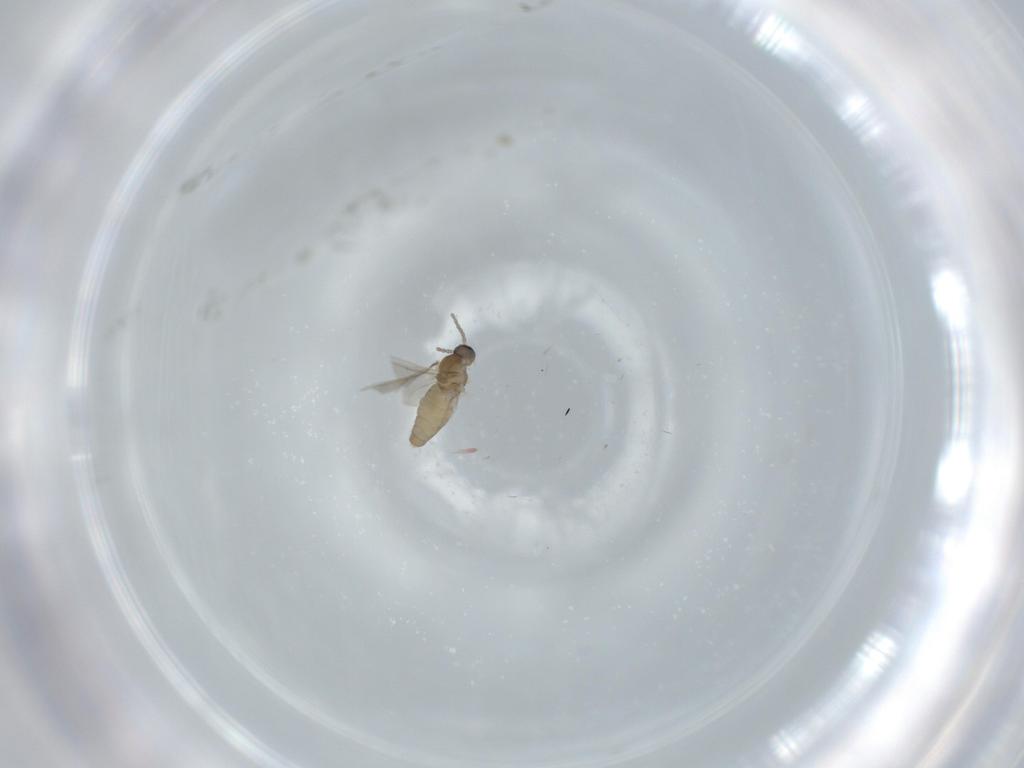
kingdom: Animalia
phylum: Arthropoda
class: Insecta
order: Diptera
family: Cecidomyiidae
